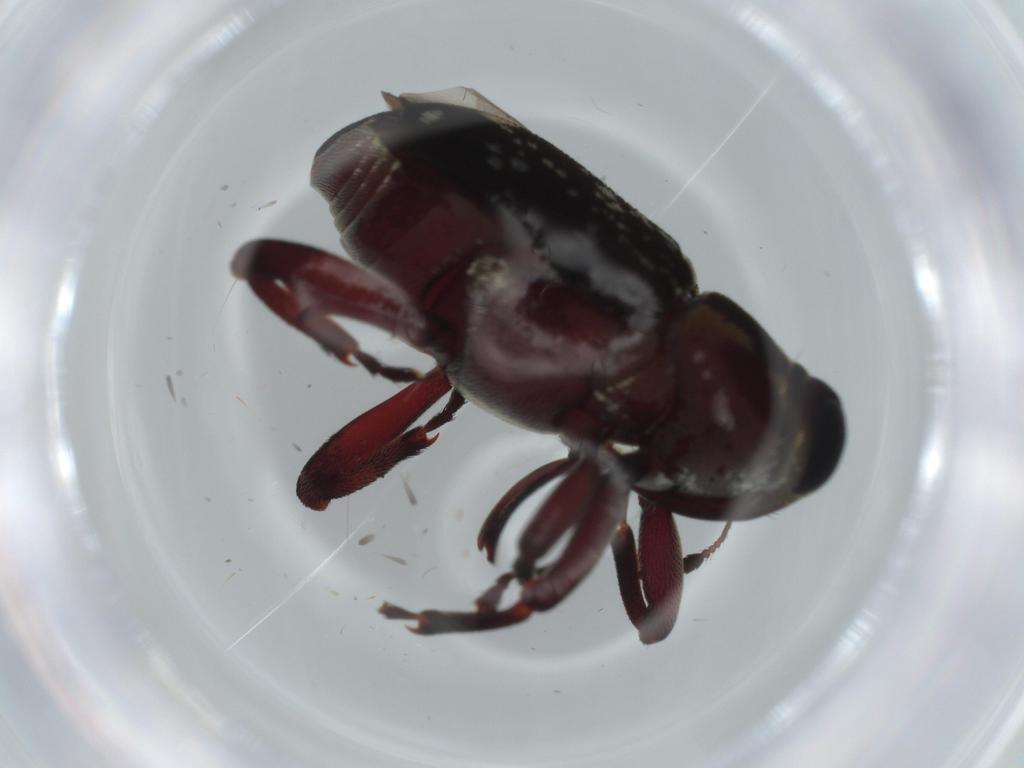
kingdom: Animalia
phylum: Arthropoda
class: Insecta
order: Coleoptera
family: Curculionidae
